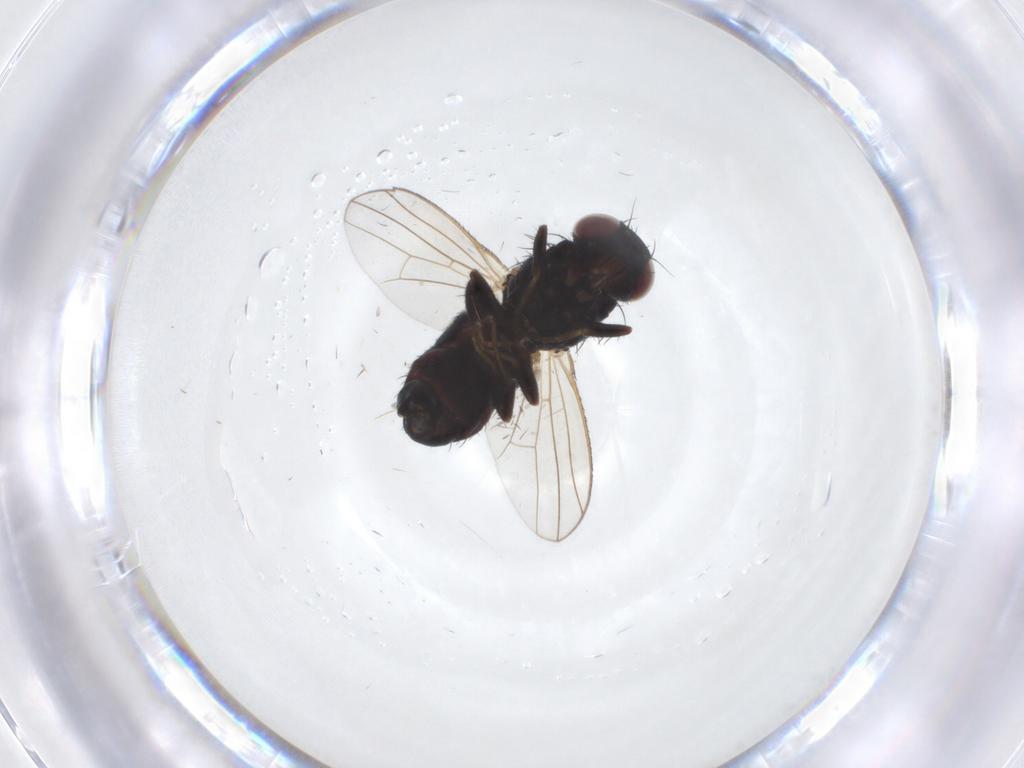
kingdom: Animalia
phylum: Arthropoda
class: Insecta
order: Diptera
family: Carnidae
